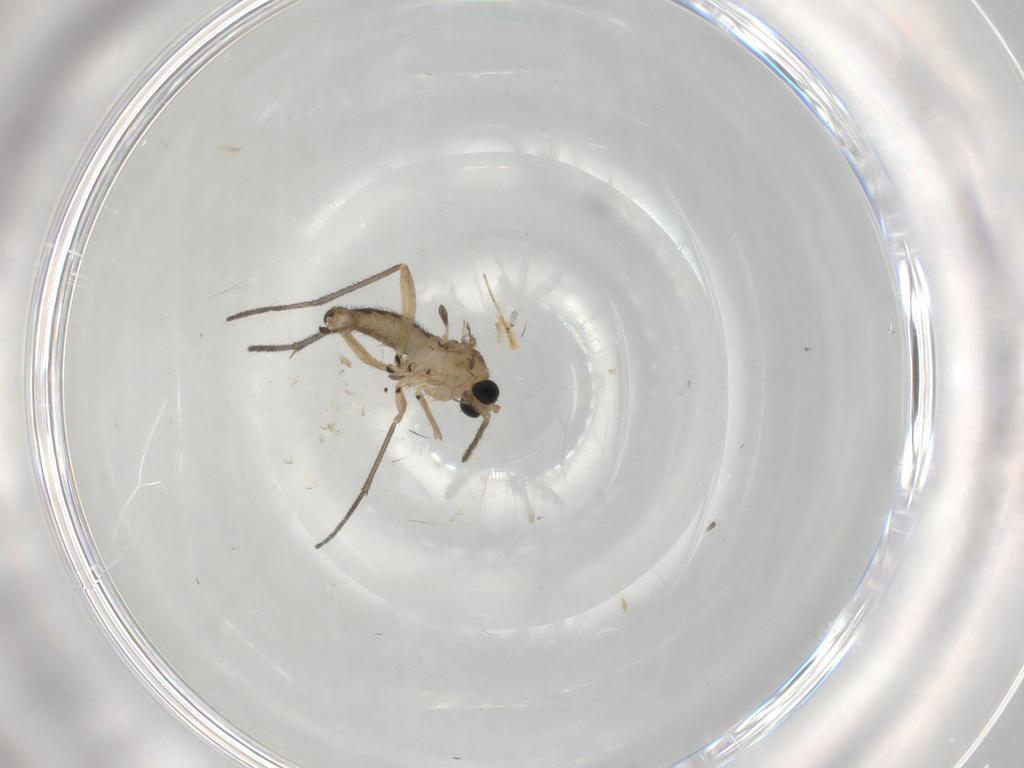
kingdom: Animalia
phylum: Arthropoda
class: Insecta
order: Diptera
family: Sciaridae
